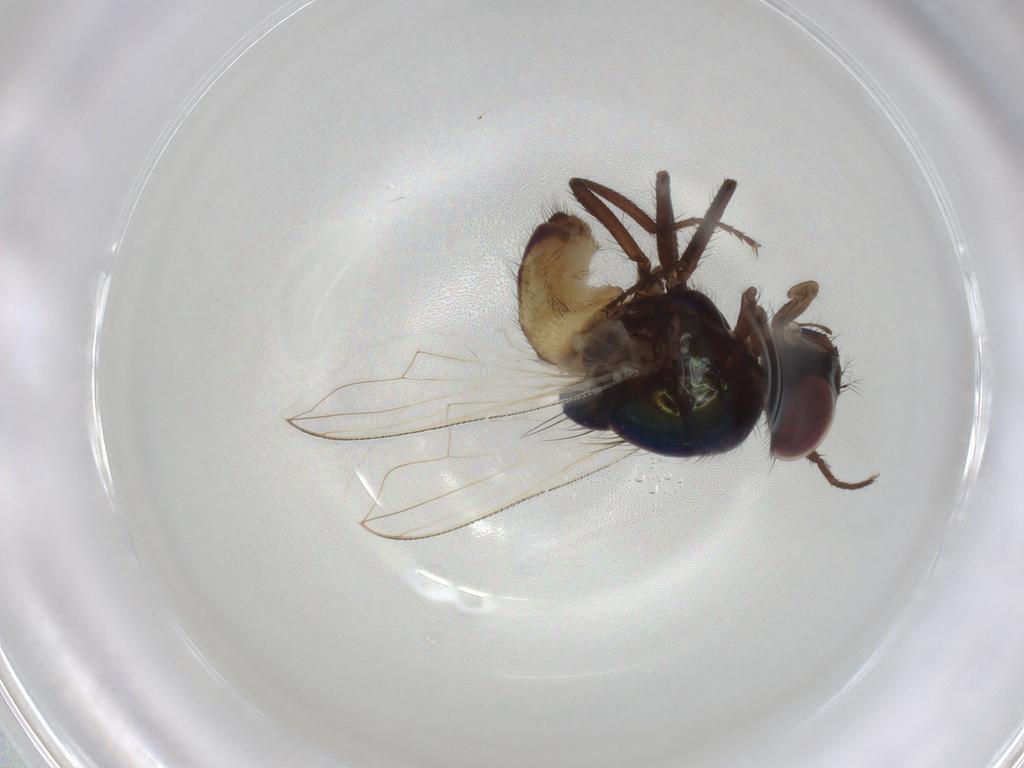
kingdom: Animalia
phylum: Arthropoda
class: Insecta
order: Diptera
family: Muscidae
